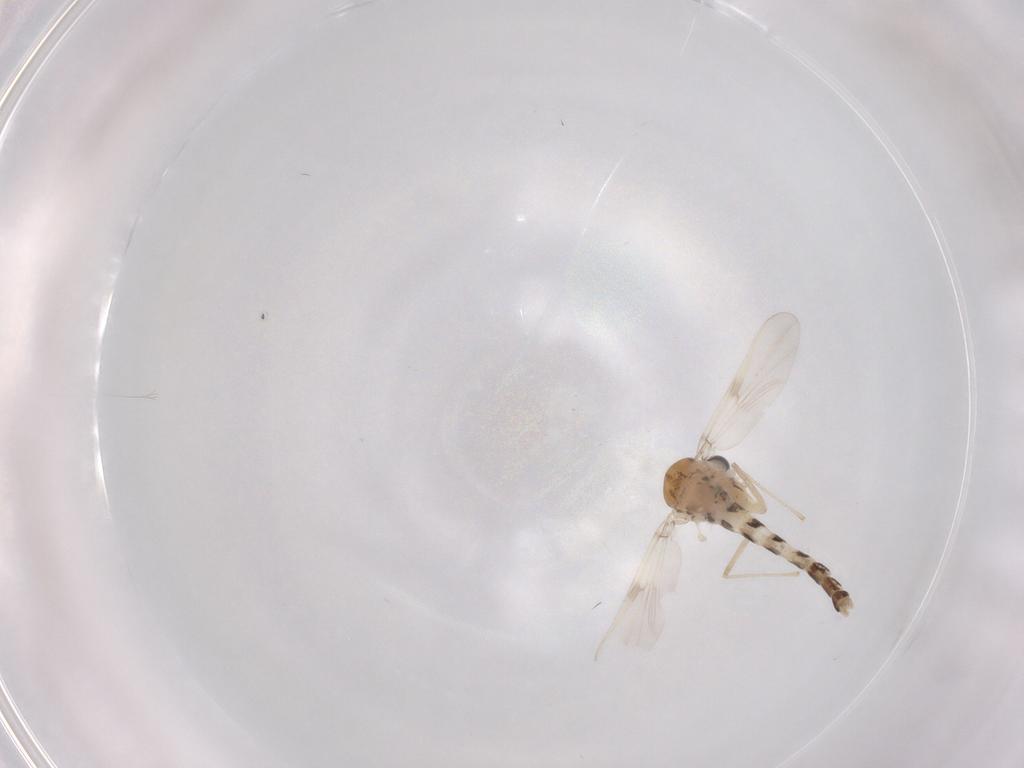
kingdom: Animalia
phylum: Arthropoda
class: Insecta
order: Diptera
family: Chironomidae
